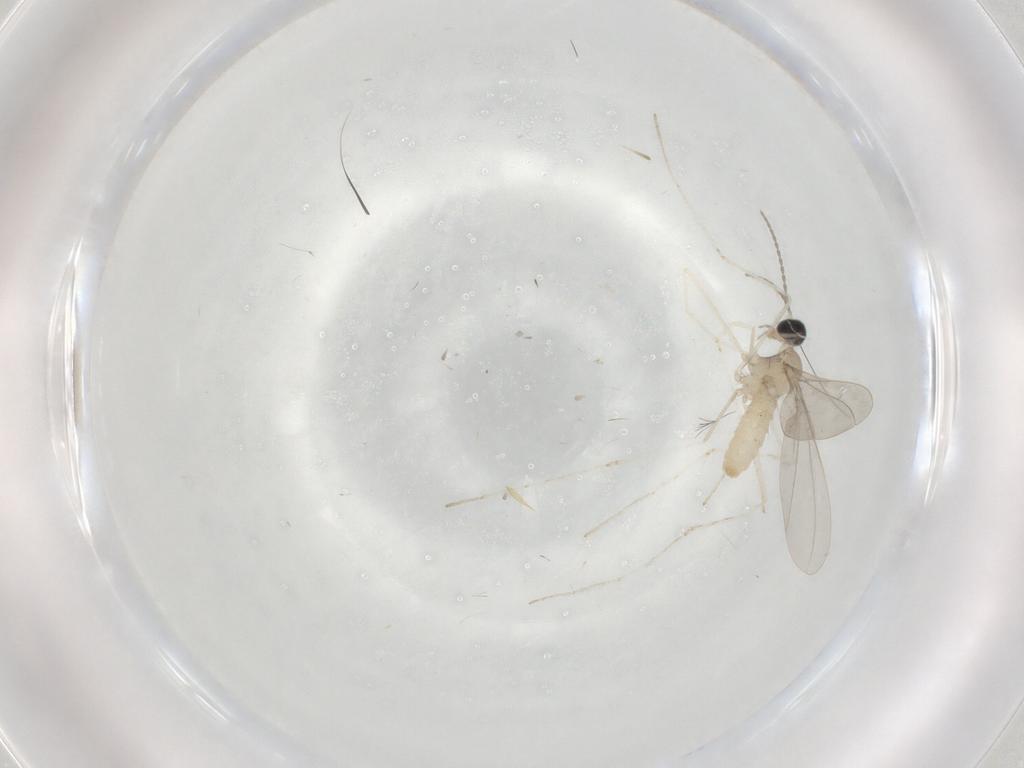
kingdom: Animalia
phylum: Arthropoda
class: Insecta
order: Diptera
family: Cecidomyiidae
